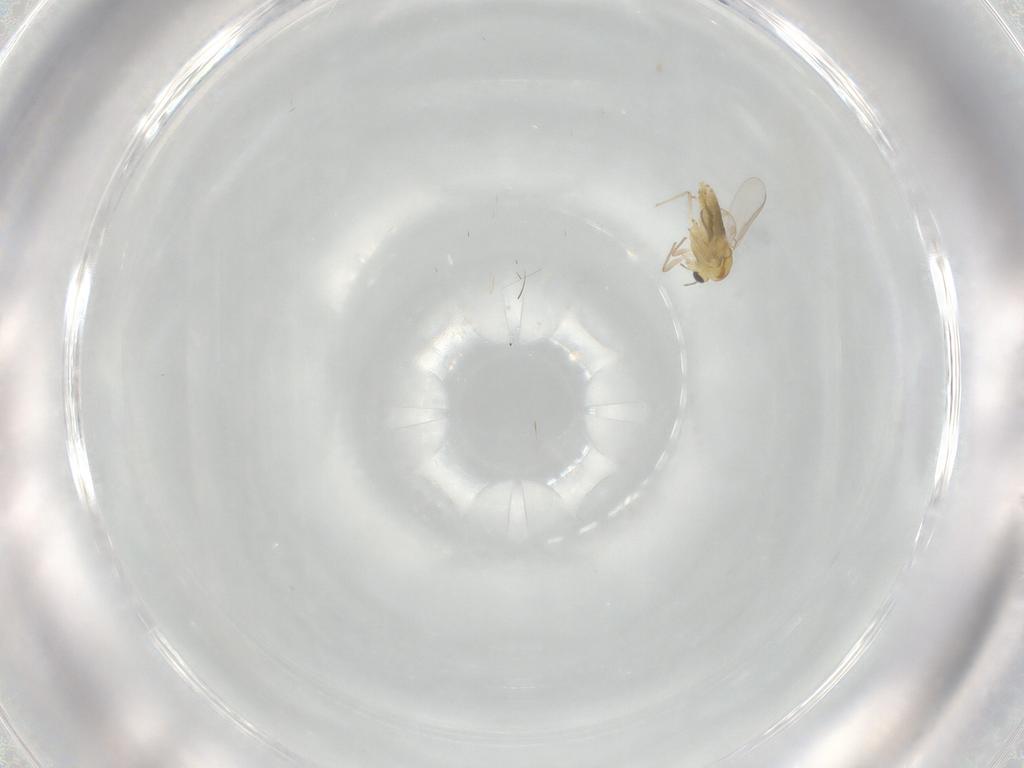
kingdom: Animalia
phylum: Arthropoda
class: Insecta
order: Diptera
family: Chironomidae
